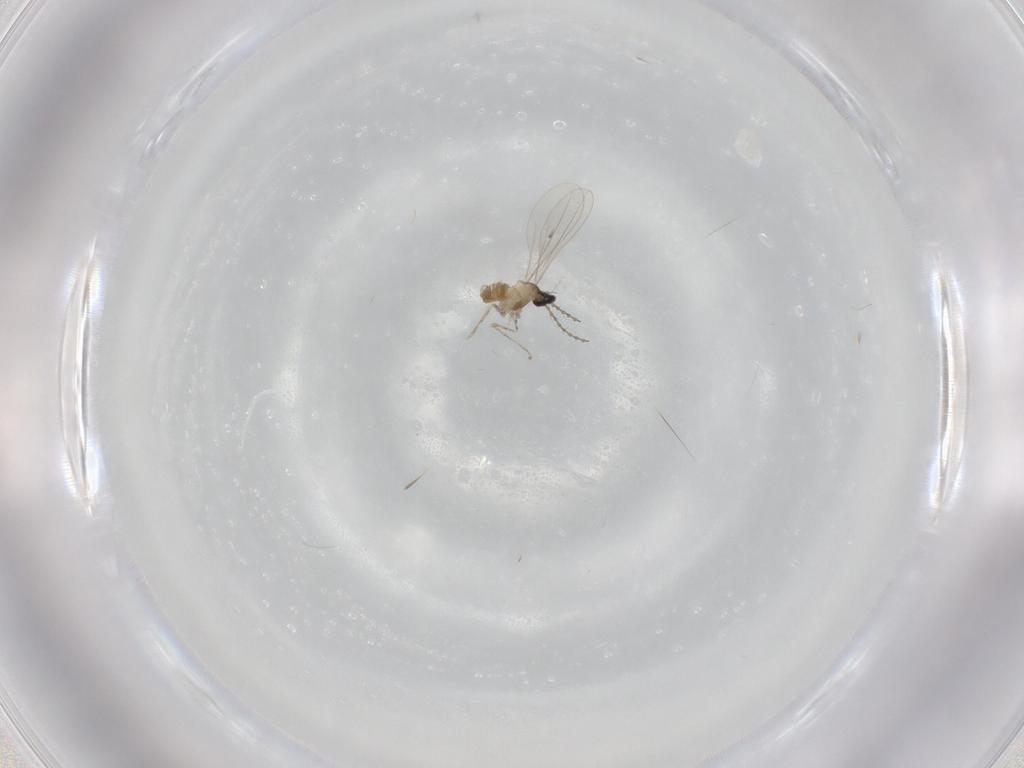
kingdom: Animalia
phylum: Arthropoda
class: Insecta
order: Diptera
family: Cecidomyiidae
